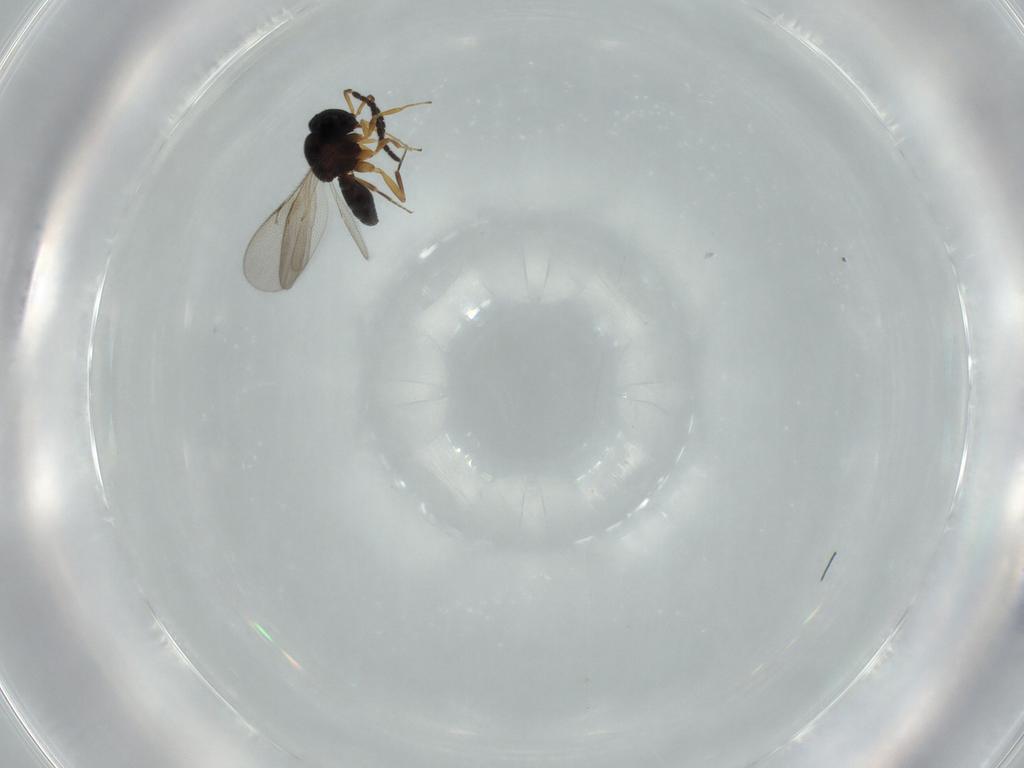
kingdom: Animalia
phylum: Arthropoda
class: Insecta
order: Hymenoptera
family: Scelionidae
